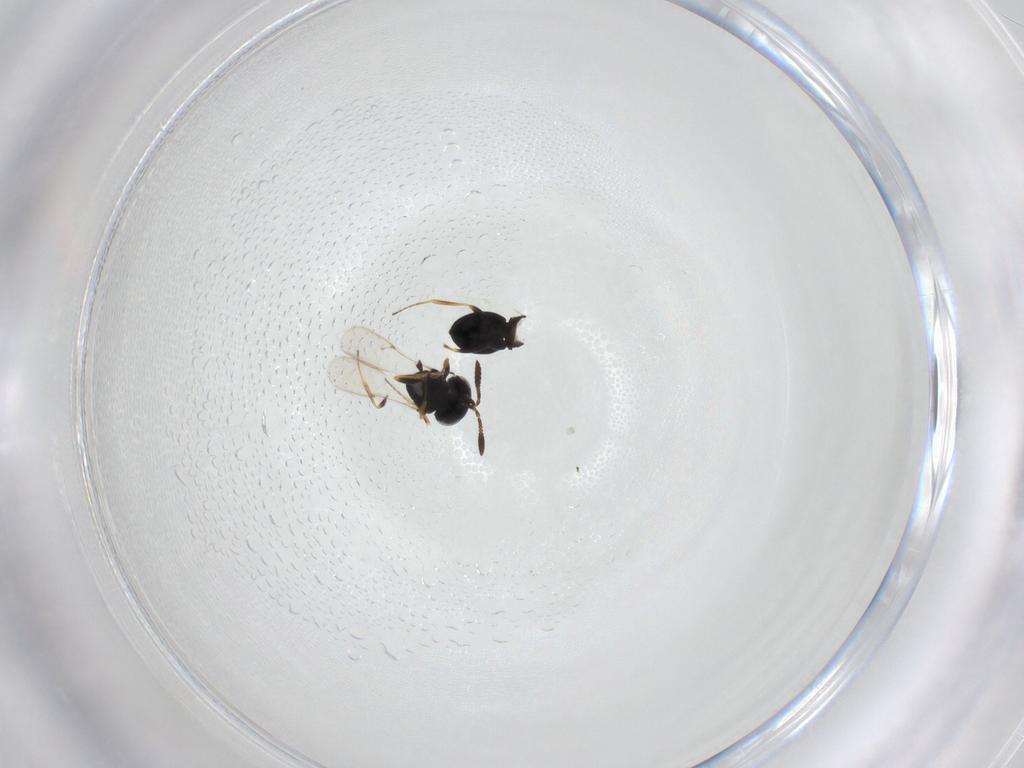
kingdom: Animalia
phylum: Arthropoda
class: Insecta
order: Hymenoptera
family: Scelionidae
